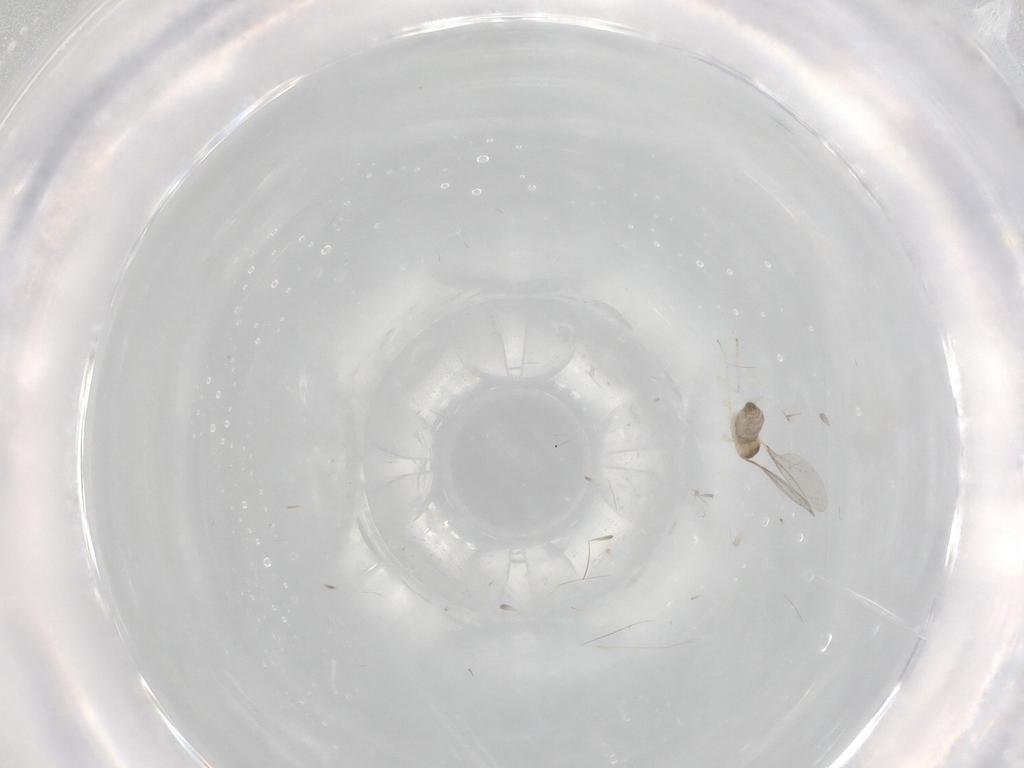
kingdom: Animalia
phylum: Arthropoda
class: Insecta
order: Diptera
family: Cecidomyiidae
